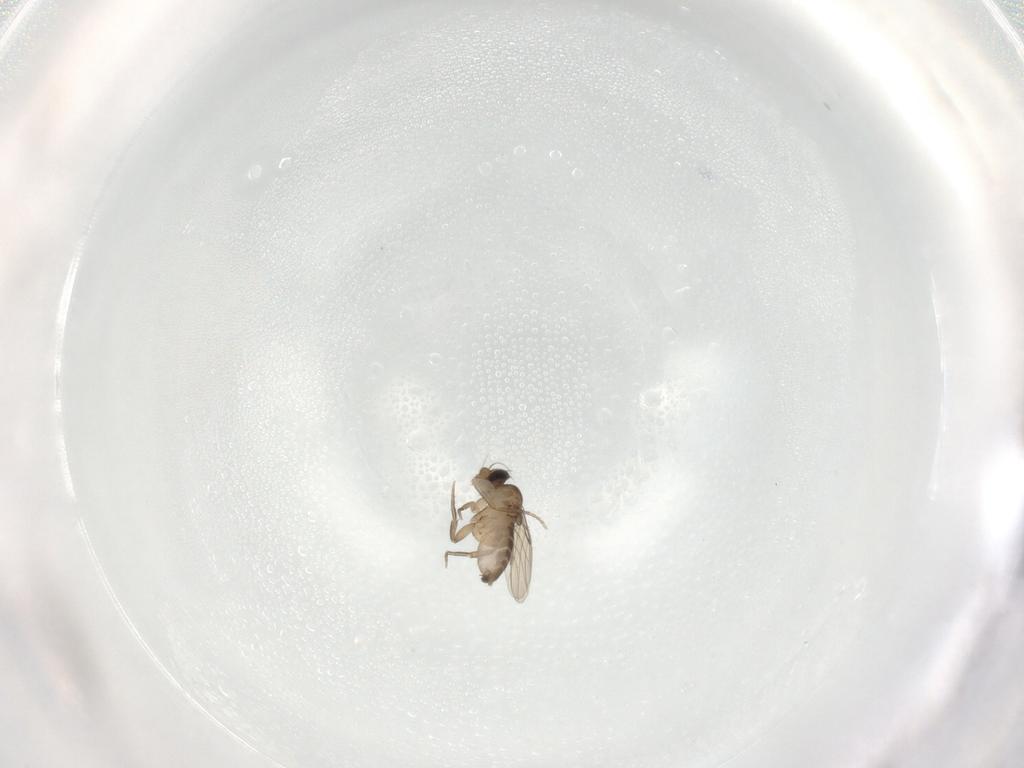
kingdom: Animalia
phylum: Arthropoda
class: Insecta
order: Diptera
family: Phoridae
